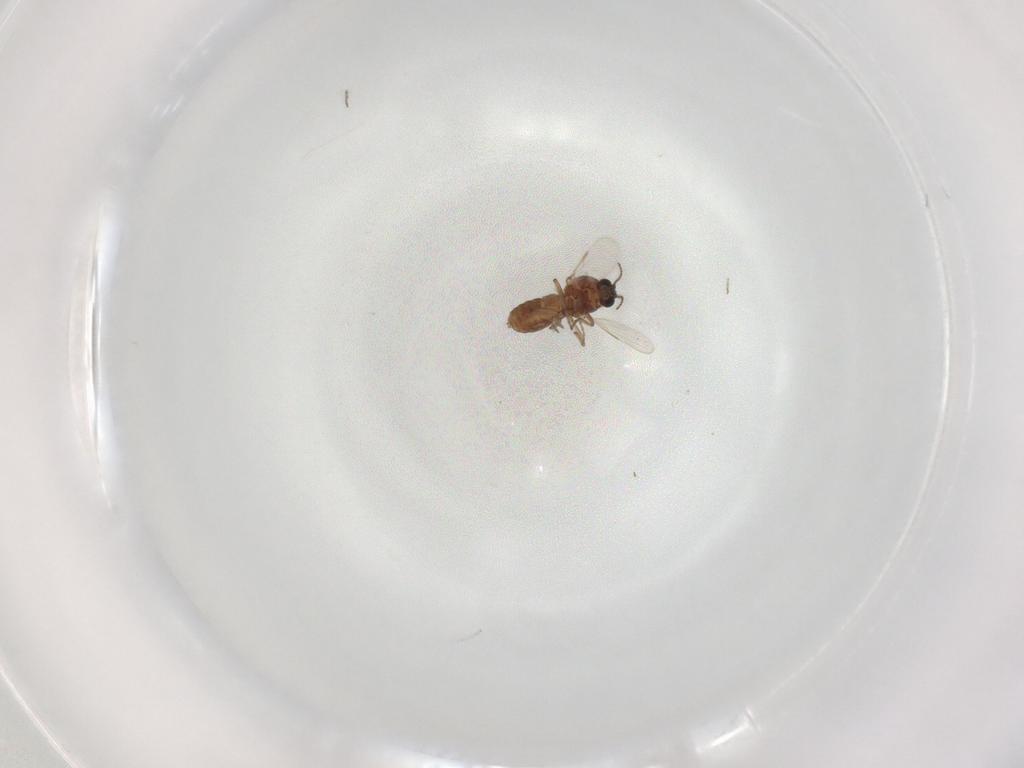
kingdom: Animalia
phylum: Arthropoda
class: Insecta
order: Diptera
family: Ceratopogonidae
